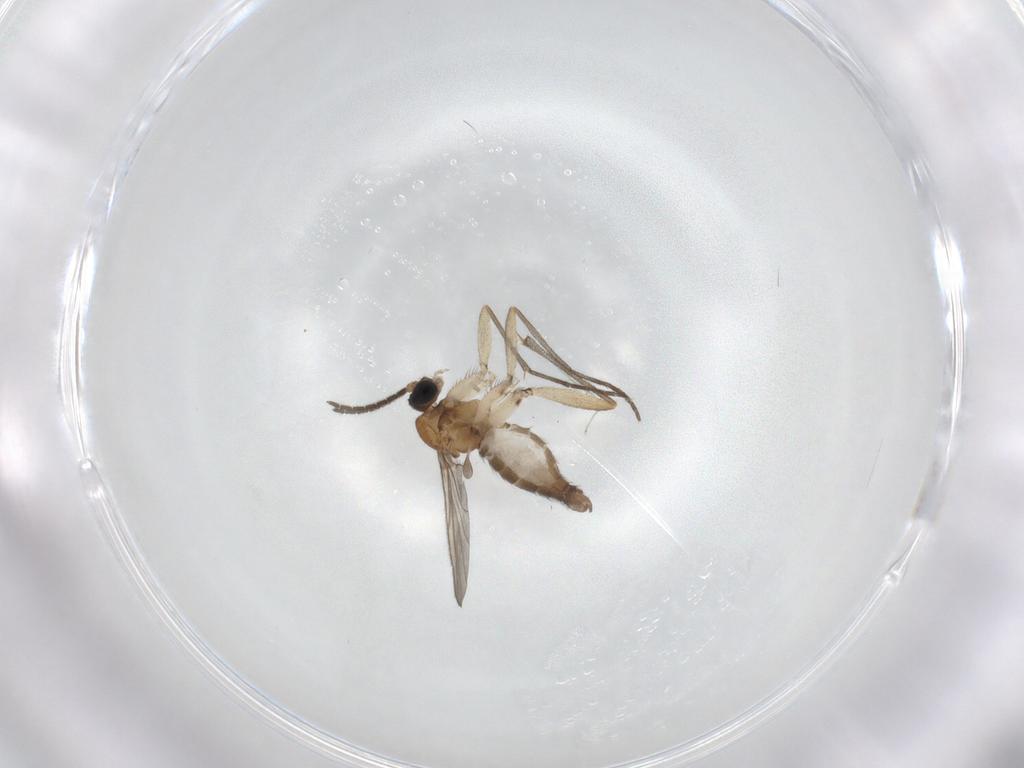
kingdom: Animalia
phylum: Arthropoda
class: Insecta
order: Diptera
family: Sciaridae
